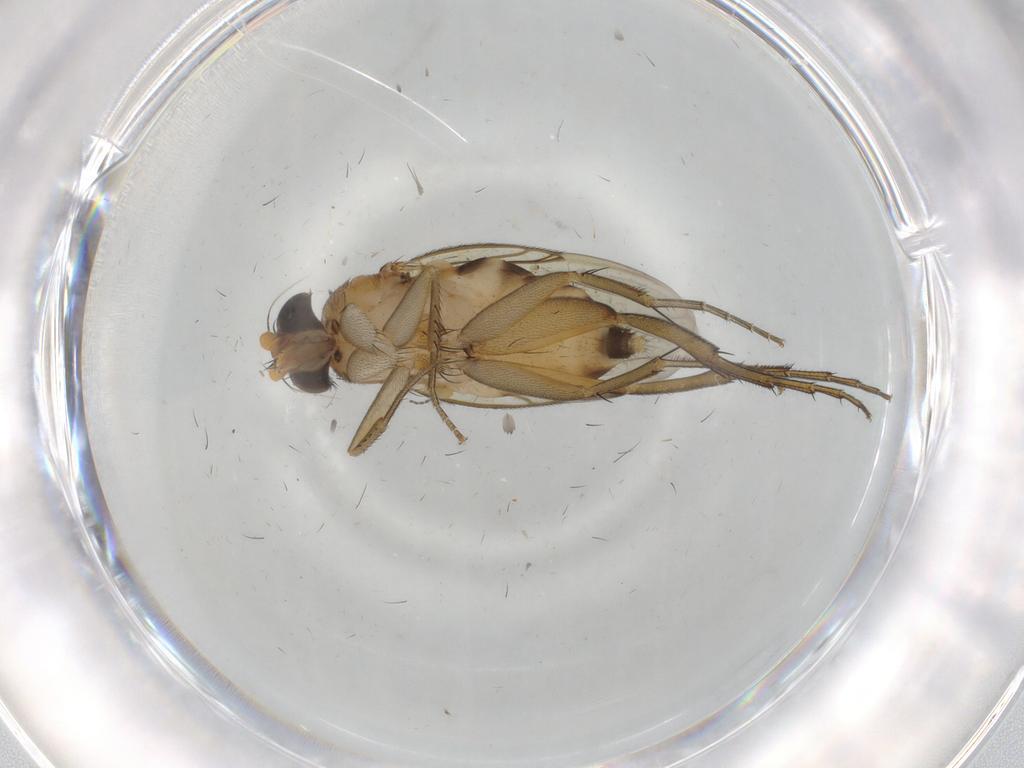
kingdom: Animalia
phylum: Arthropoda
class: Insecta
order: Diptera
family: Phoridae
